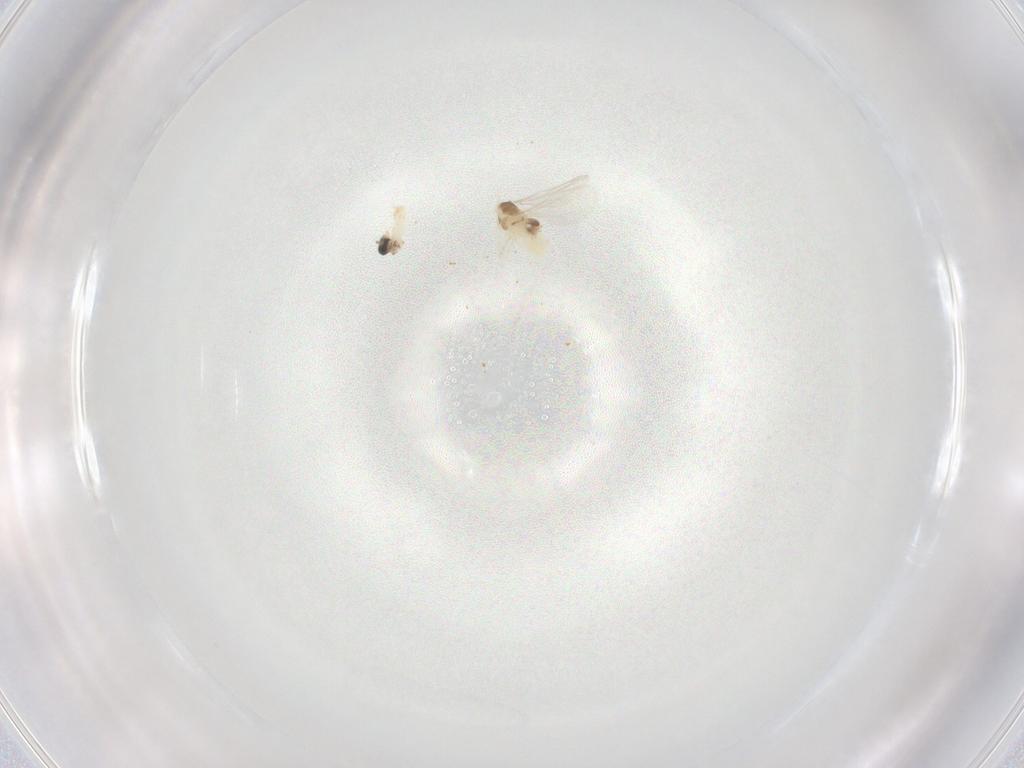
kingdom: Animalia
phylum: Arthropoda
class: Insecta
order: Diptera
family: Cecidomyiidae
